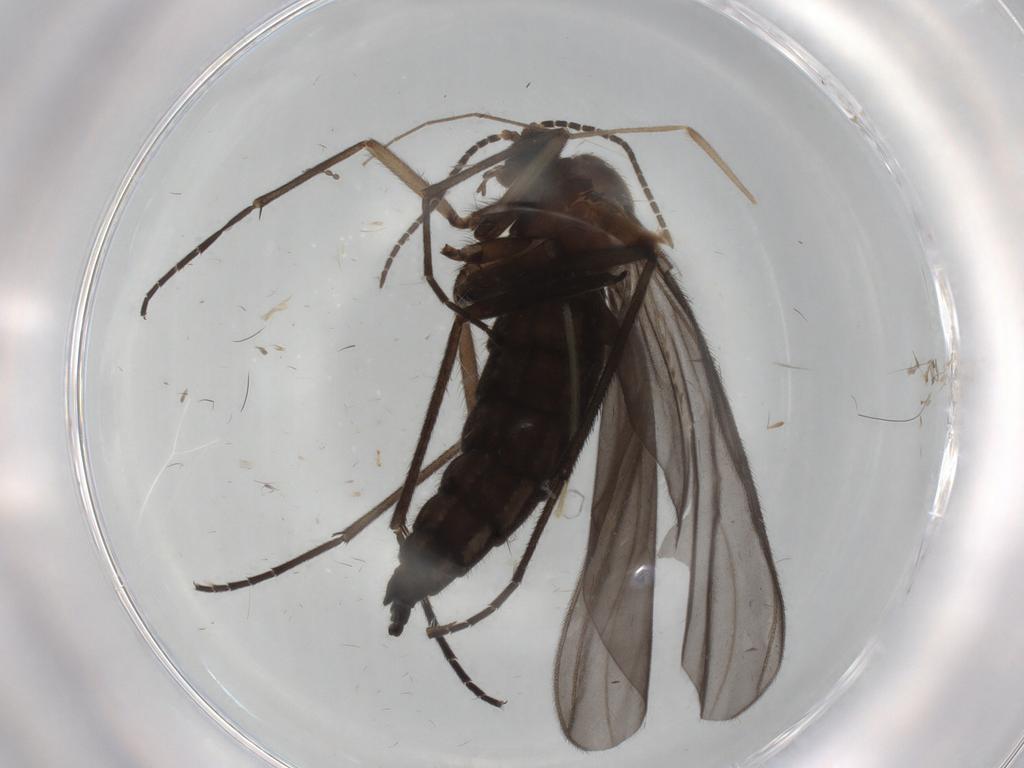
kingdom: Animalia
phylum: Arthropoda
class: Insecta
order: Diptera
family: Sciaridae
